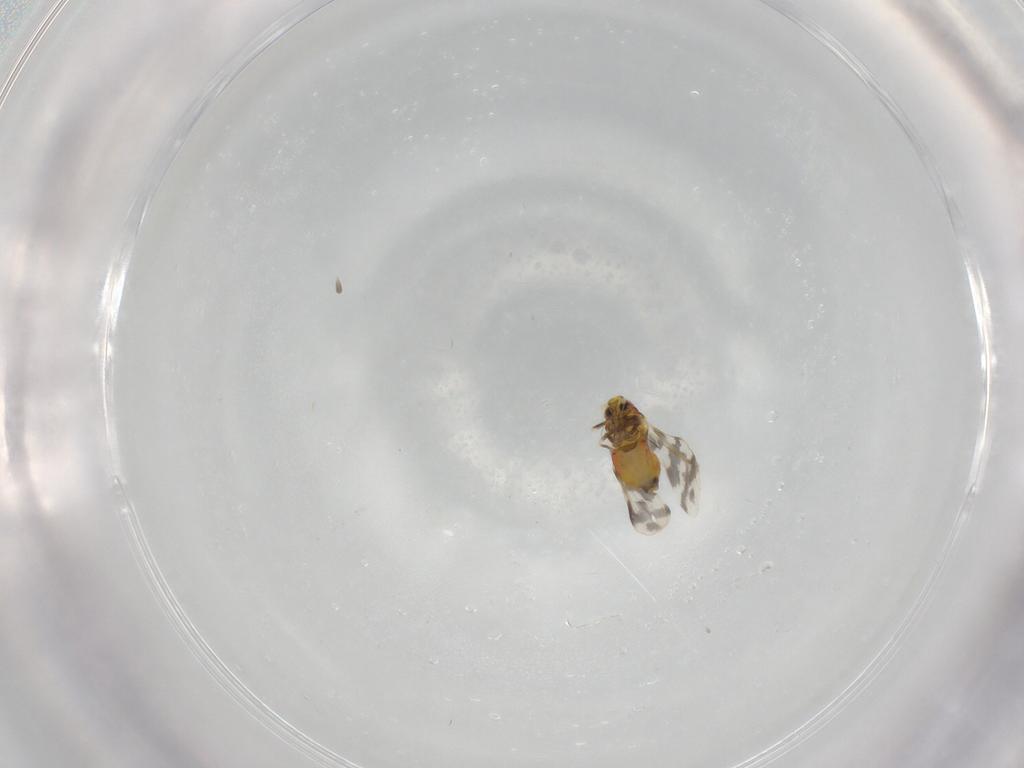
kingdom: Animalia
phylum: Arthropoda
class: Insecta
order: Hemiptera
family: Aleyrodidae
